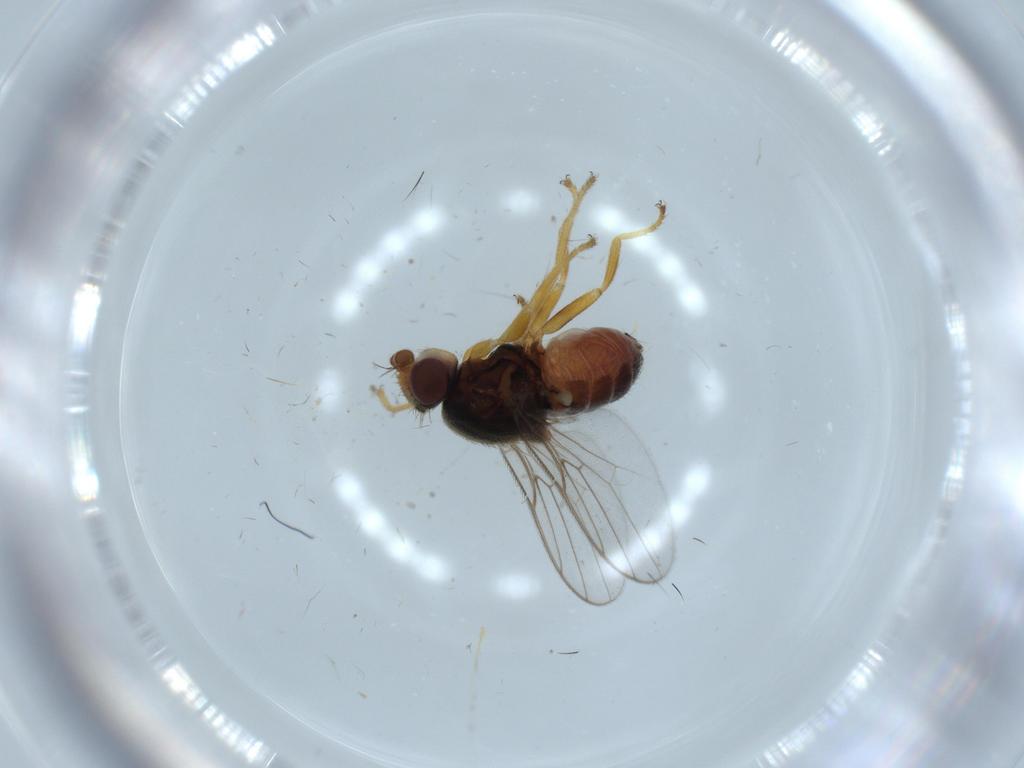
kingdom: Animalia
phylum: Arthropoda
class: Insecta
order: Diptera
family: Phoridae
